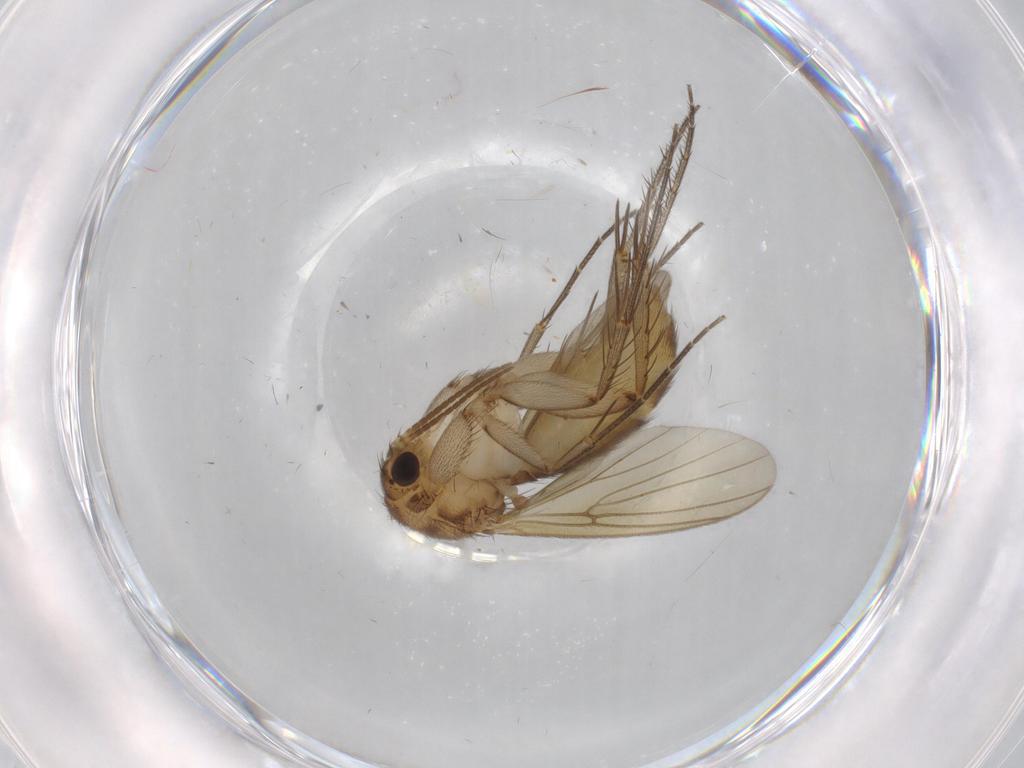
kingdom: Animalia
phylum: Arthropoda
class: Insecta
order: Diptera
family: Mycetophilidae
